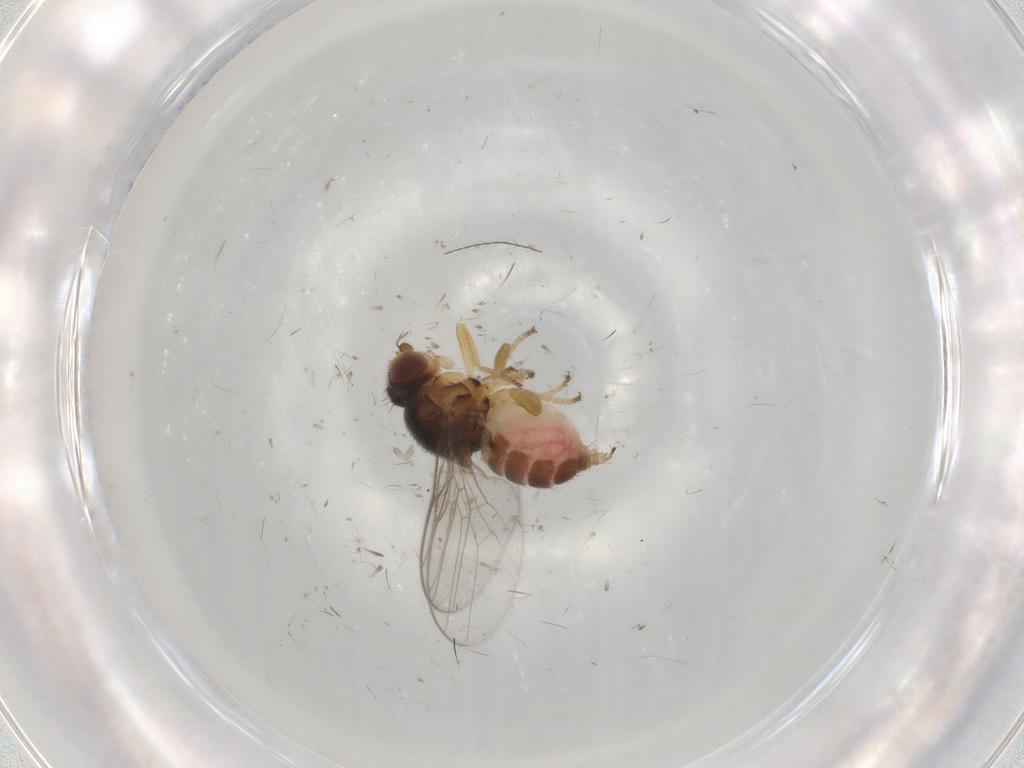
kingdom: Animalia
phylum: Arthropoda
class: Insecta
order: Diptera
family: Chloropidae
